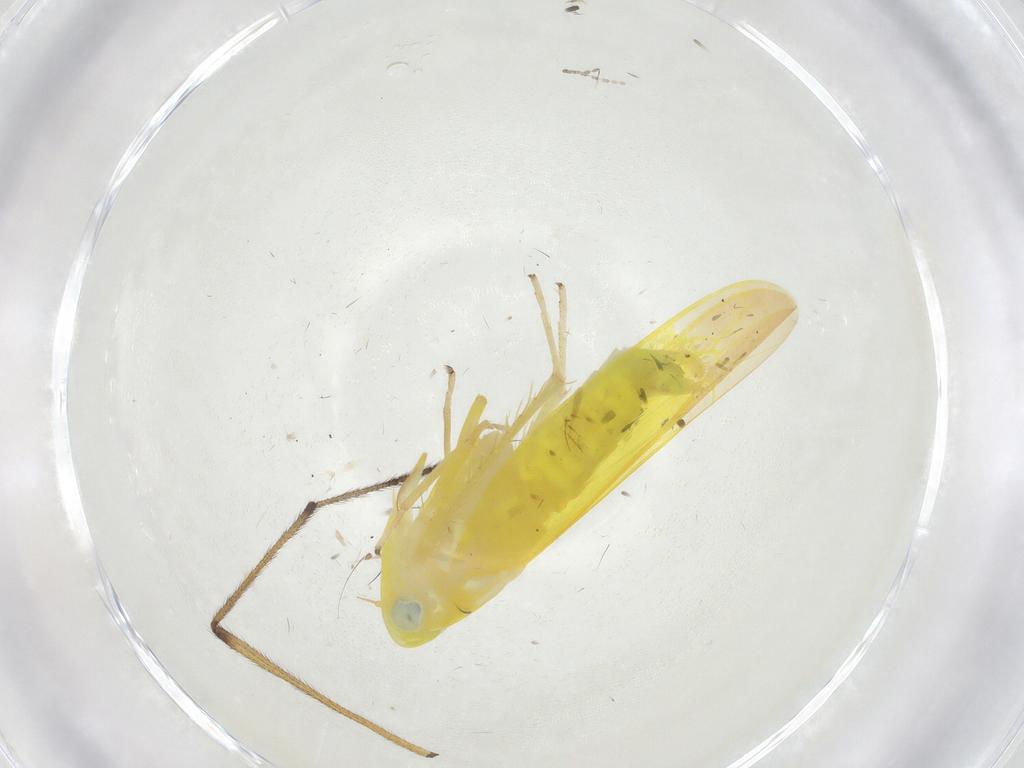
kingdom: Animalia
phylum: Arthropoda
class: Insecta
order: Hemiptera
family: Cicadellidae
